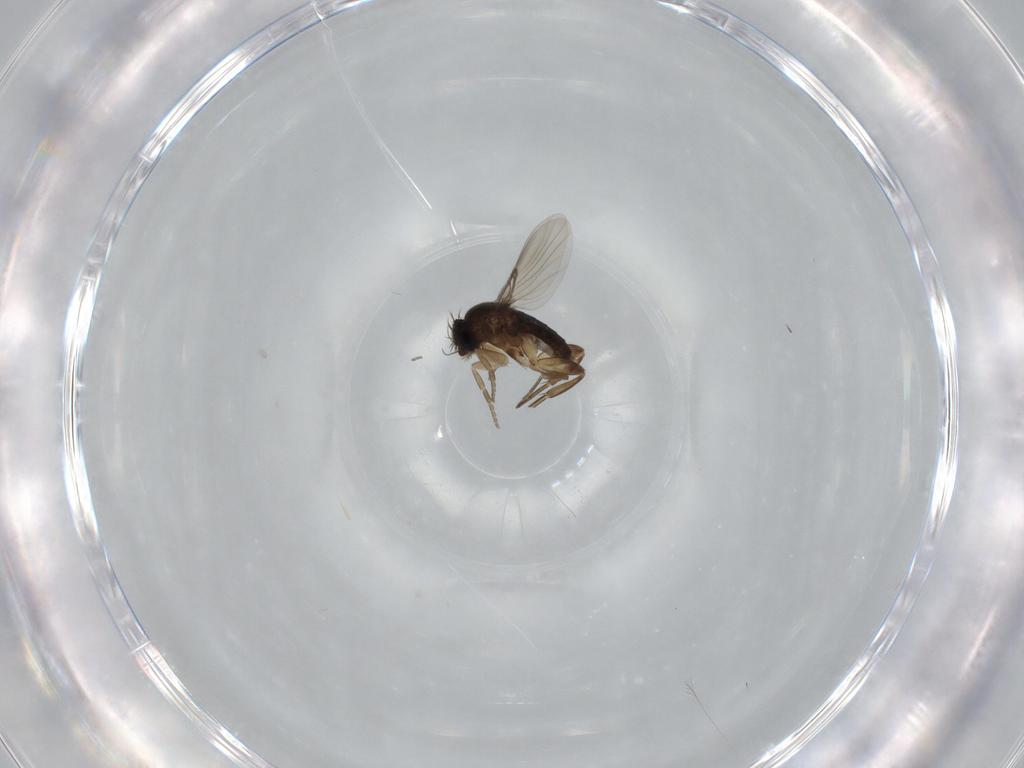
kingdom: Animalia
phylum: Arthropoda
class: Insecta
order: Diptera
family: Phoridae
